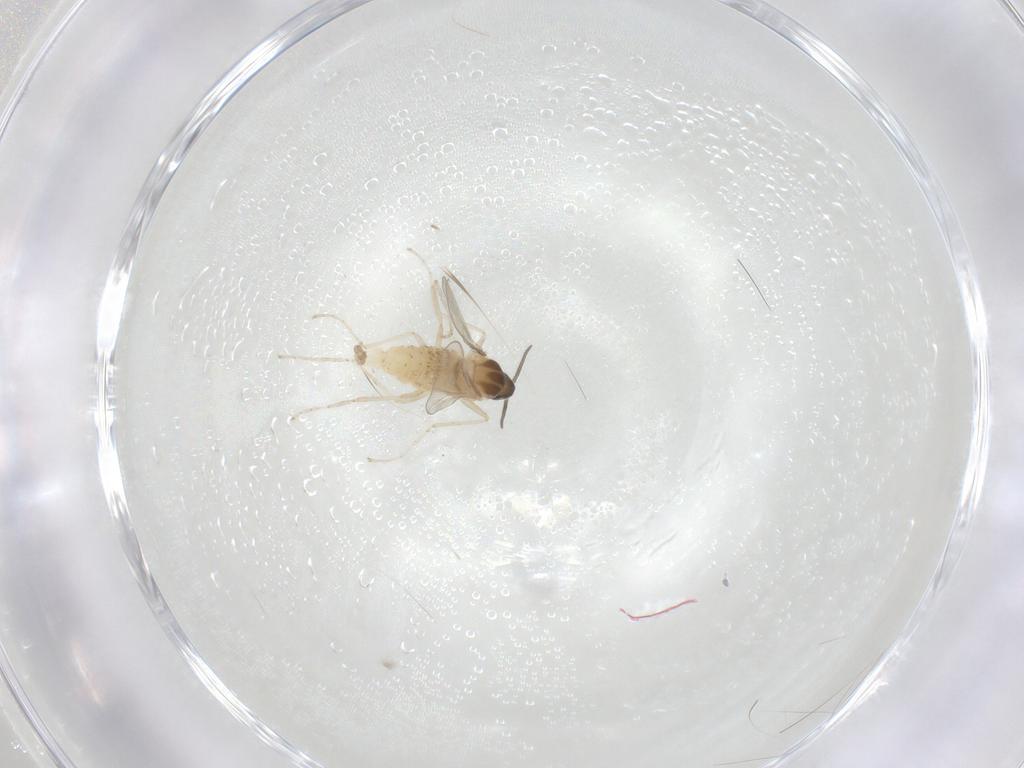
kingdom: Animalia
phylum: Arthropoda
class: Insecta
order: Diptera
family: Cecidomyiidae
